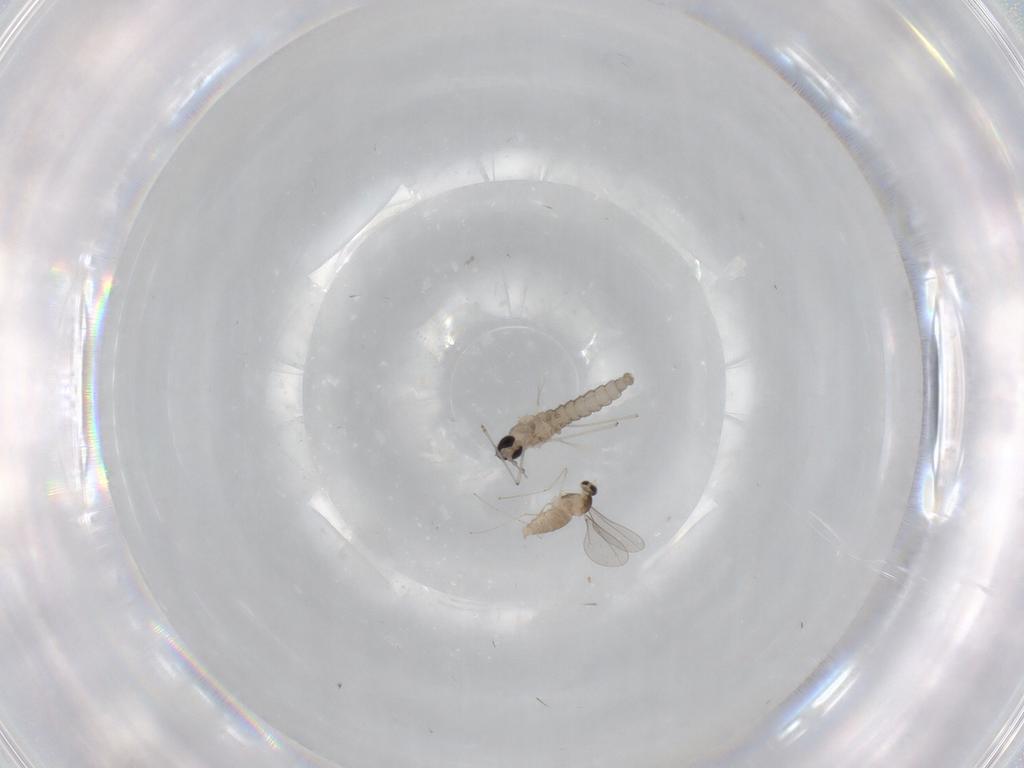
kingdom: Animalia
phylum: Arthropoda
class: Insecta
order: Diptera
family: Cecidomyiidae
